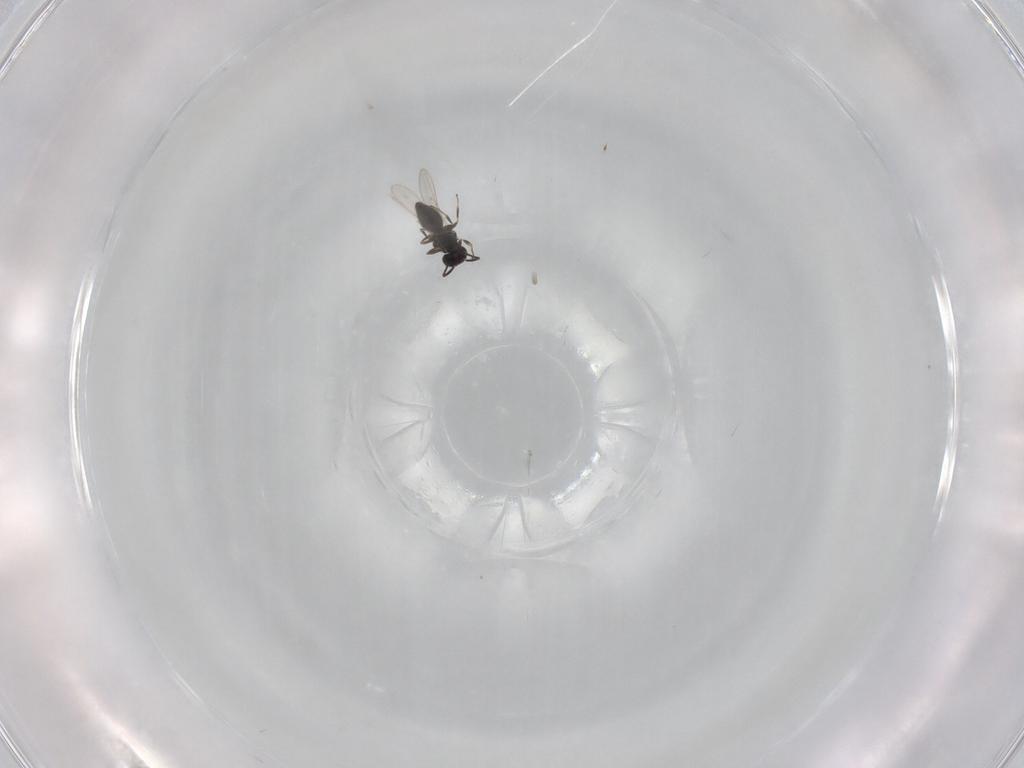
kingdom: Animalia
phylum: Arthropoda
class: Insecta
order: Hymenoptera
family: Scelionidae
